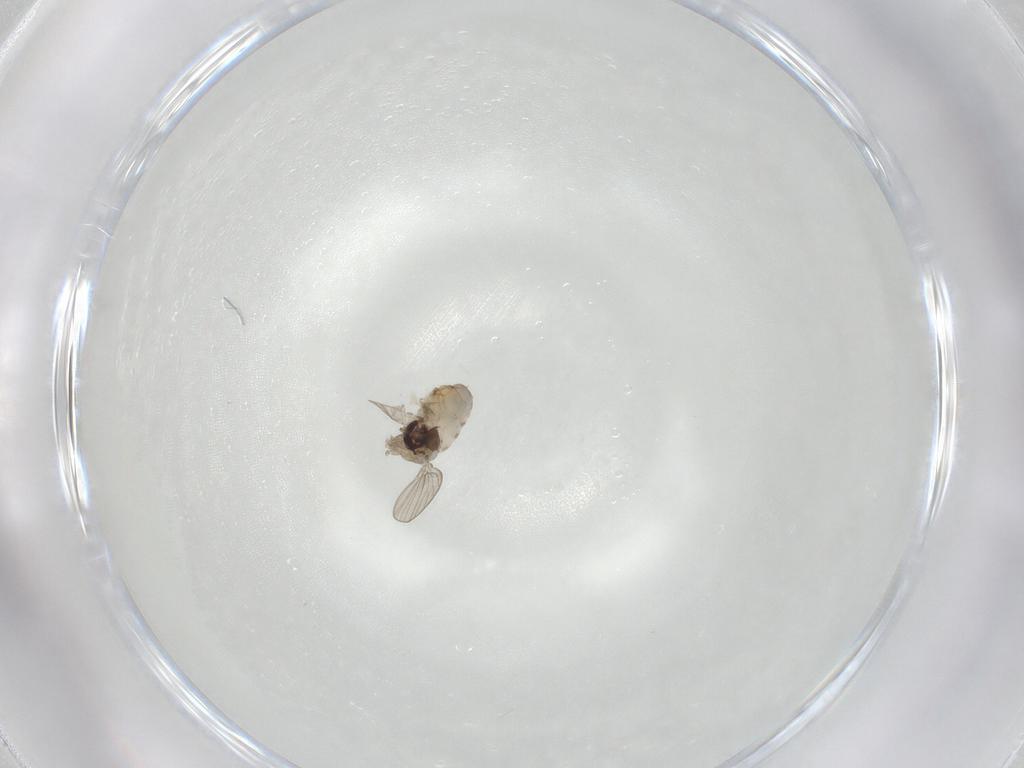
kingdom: Animalia
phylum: Arthropoda
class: Insecta
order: Diptera
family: Psychodidae
